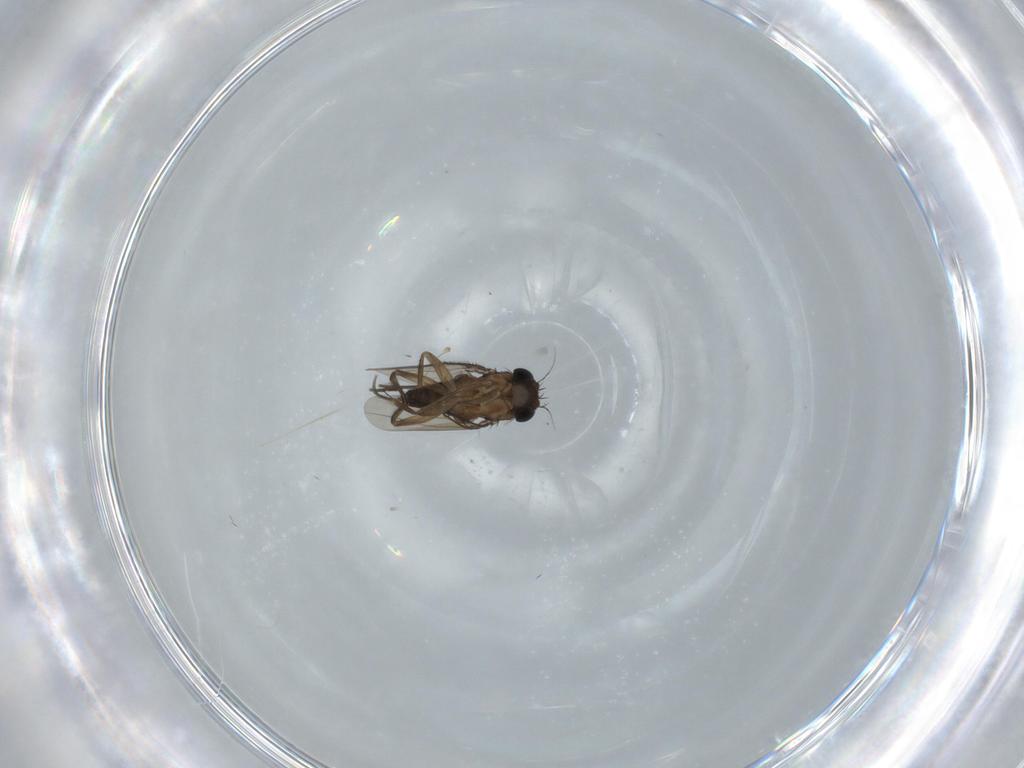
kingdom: Animalia
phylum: Arthropoda
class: Insecta
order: Diptera
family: Phoridae
